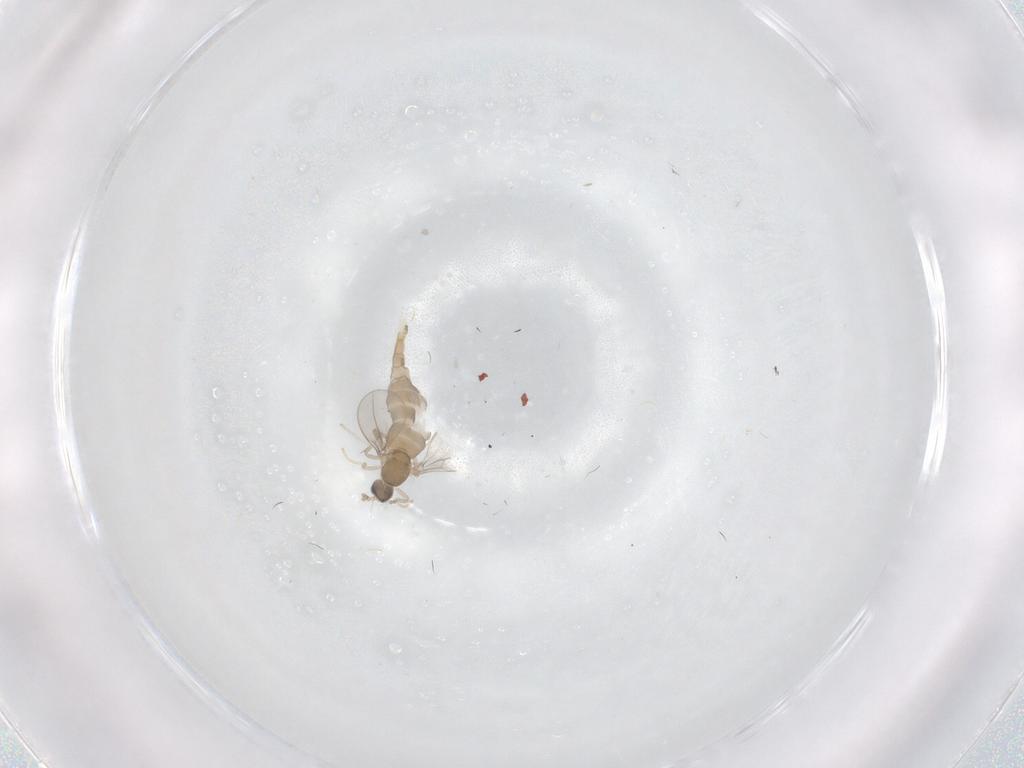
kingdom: Animalia
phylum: Arthropoda
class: Insecta
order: Diptera
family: Cecidomyiidae
